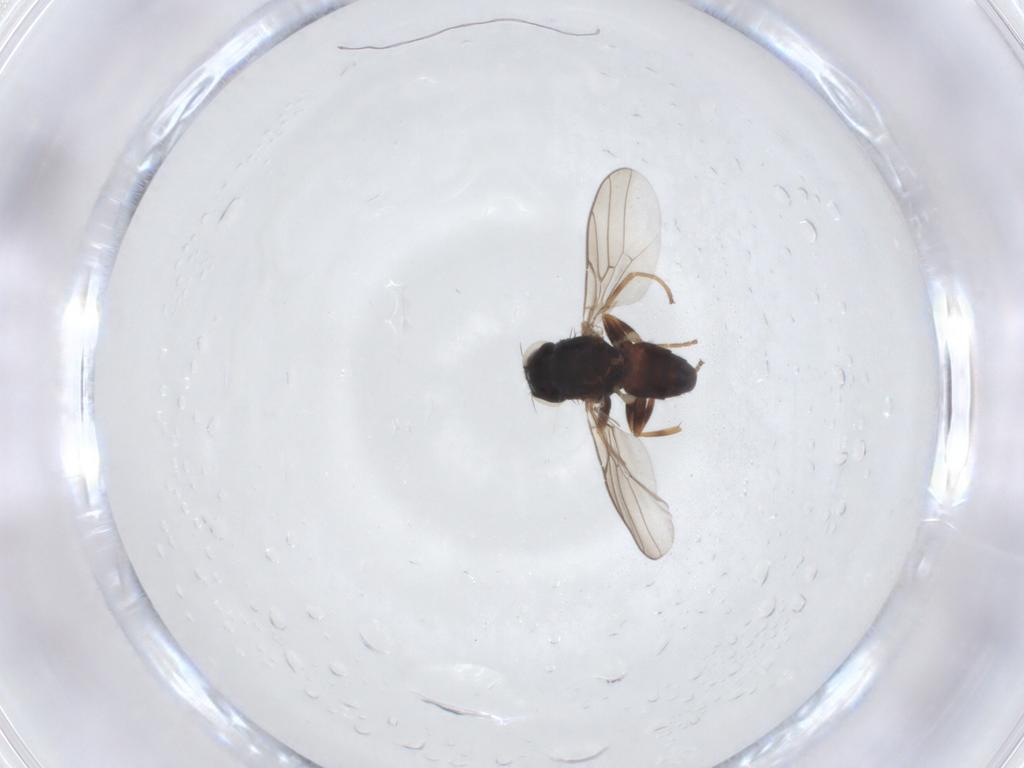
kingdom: Animalia
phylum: Arthropoda
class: Insecta
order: Diptera
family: Chloropidae
